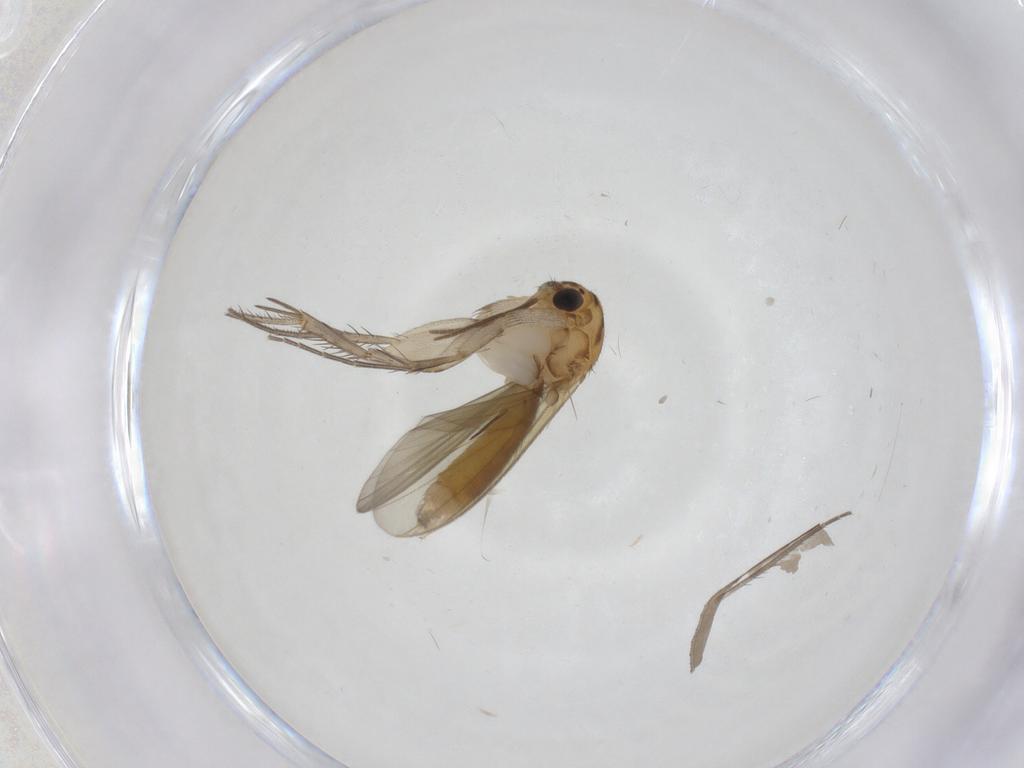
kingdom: Animalia
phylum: Arthropoda
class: Insecta
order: Diptera
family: Mycetophilidae
